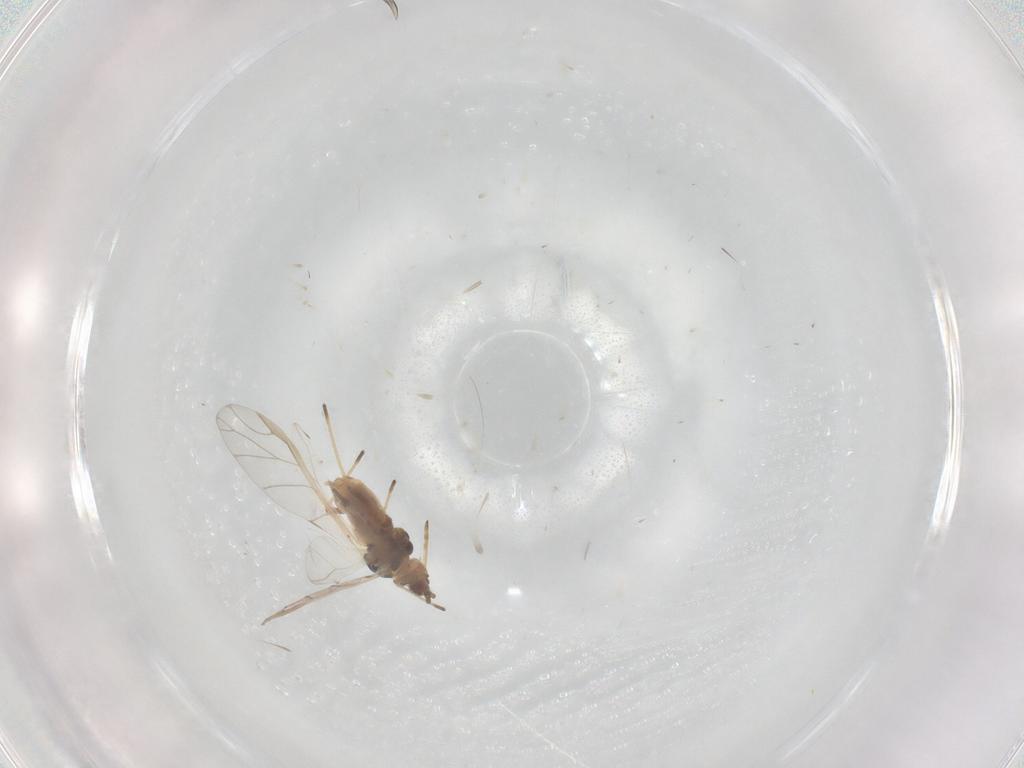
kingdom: Animalia
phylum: Arthropoda
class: Insecta
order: Hemiptera
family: Aphididae
